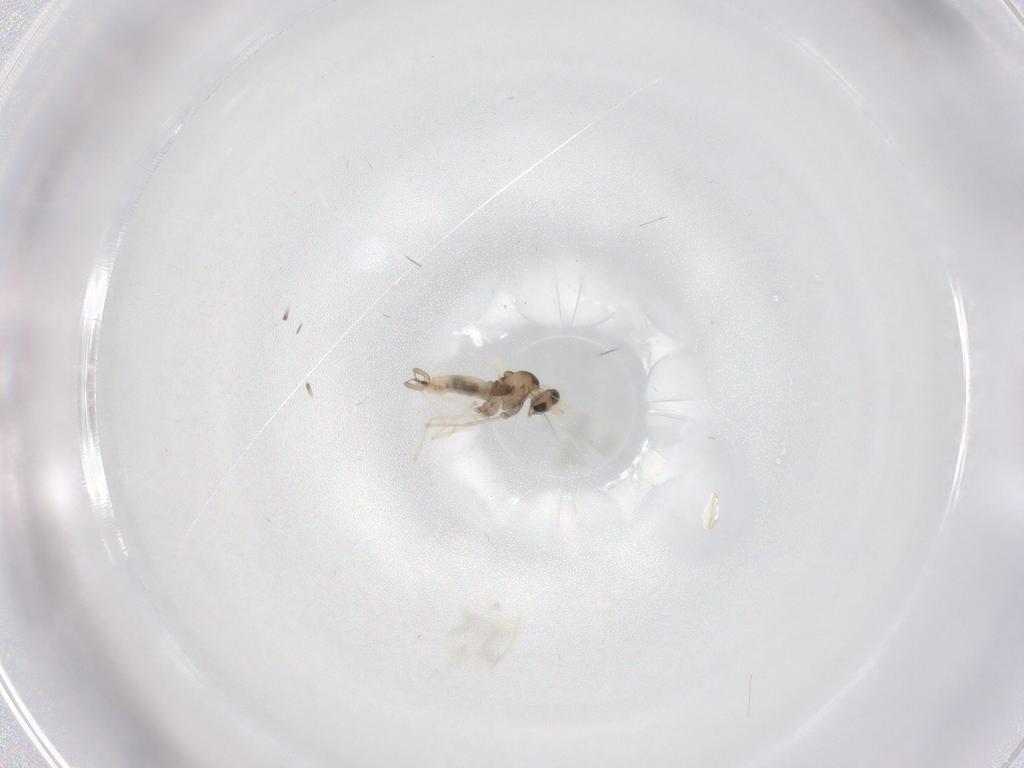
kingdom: Animalia
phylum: Arthropoda
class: Insecta
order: Diptera
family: Cecidomyiidae
